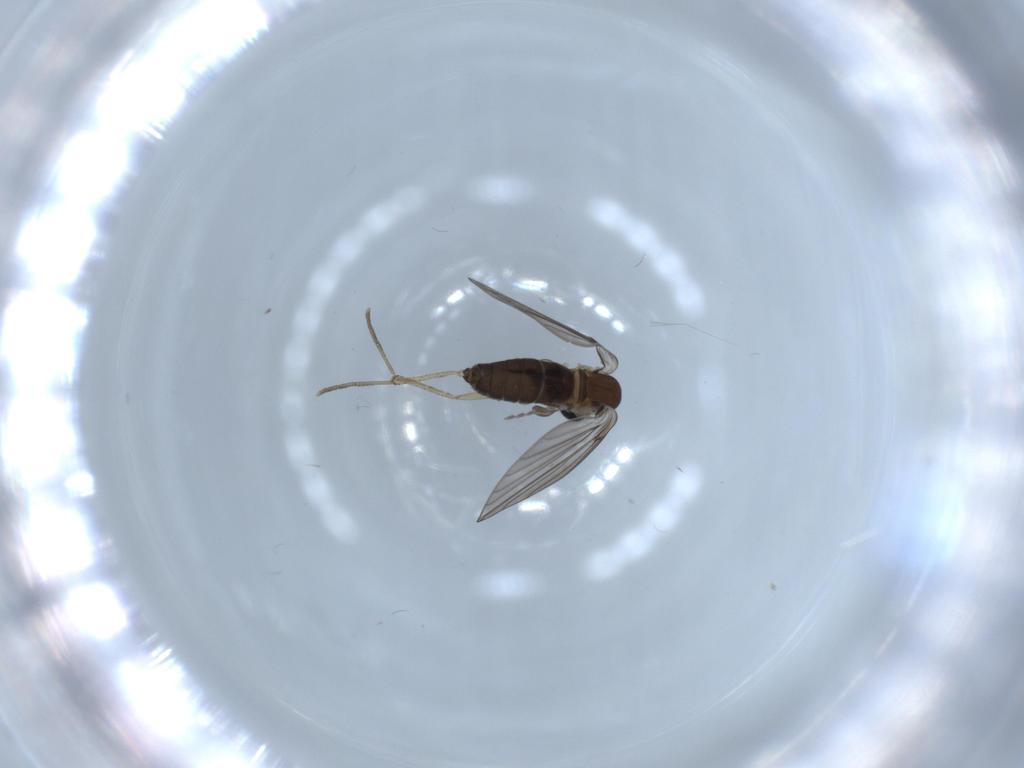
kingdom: Animalia
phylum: Arthropoda
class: Insecta
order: Diptera
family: Psychodidae
